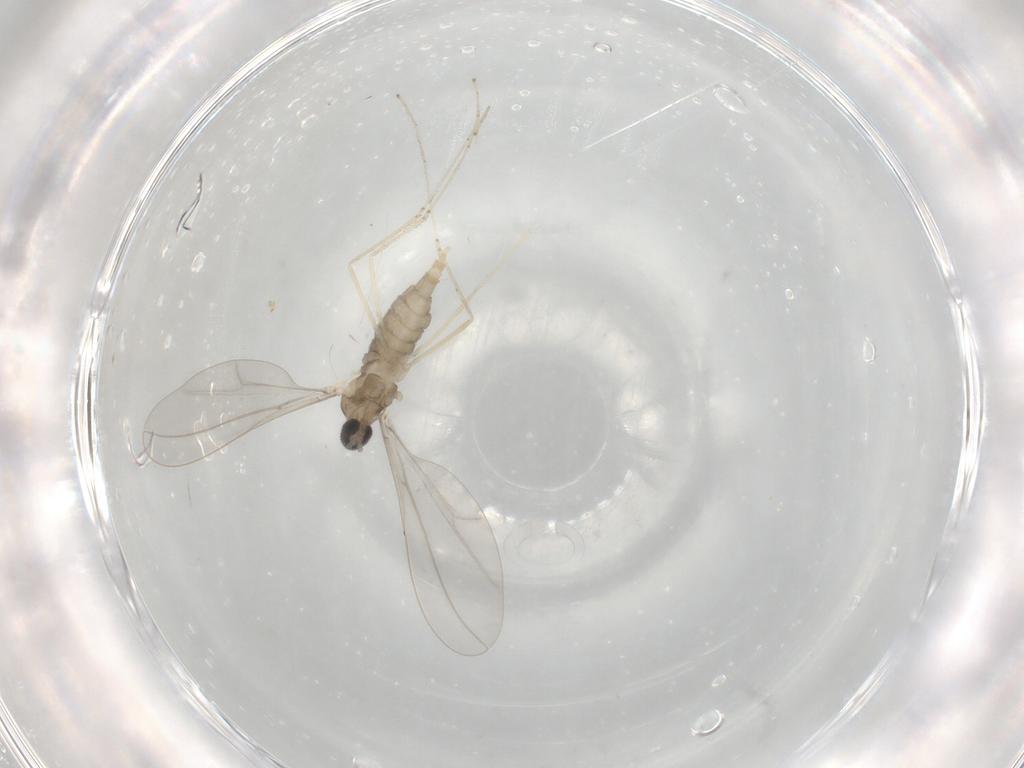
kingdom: Animalia
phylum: Arthropoda
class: Insecta
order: Diptera
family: Cecidomyiidae
